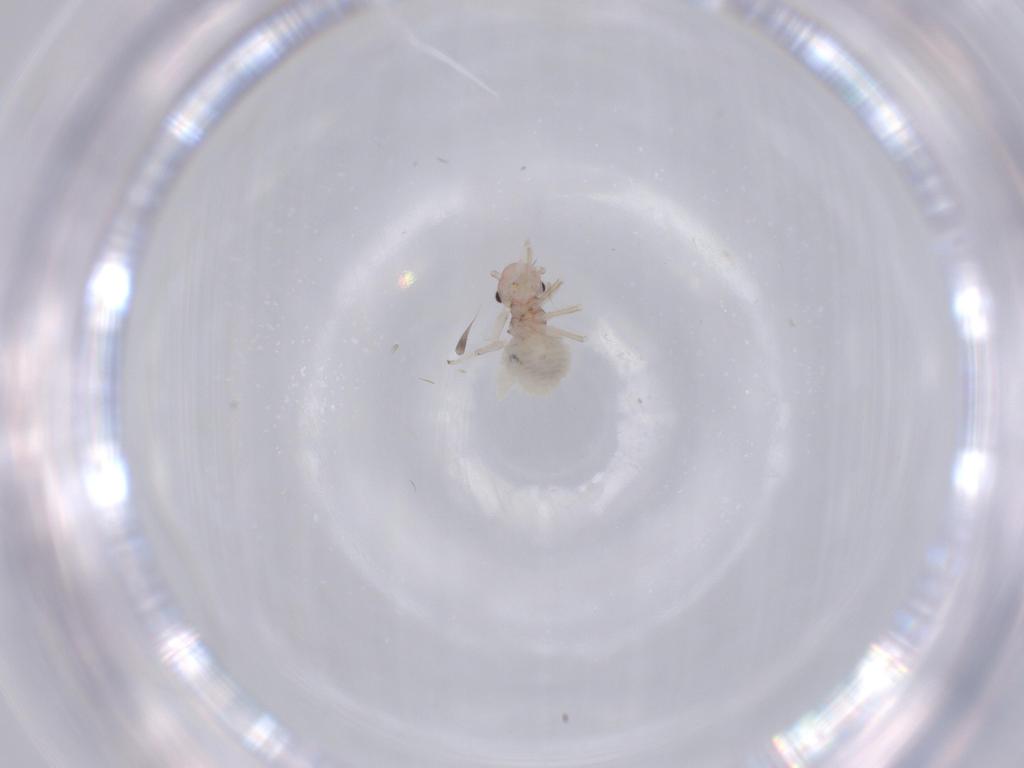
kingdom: Animalia
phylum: Arthropoda
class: Insecta
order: Psocodea
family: Amphipsocidae
